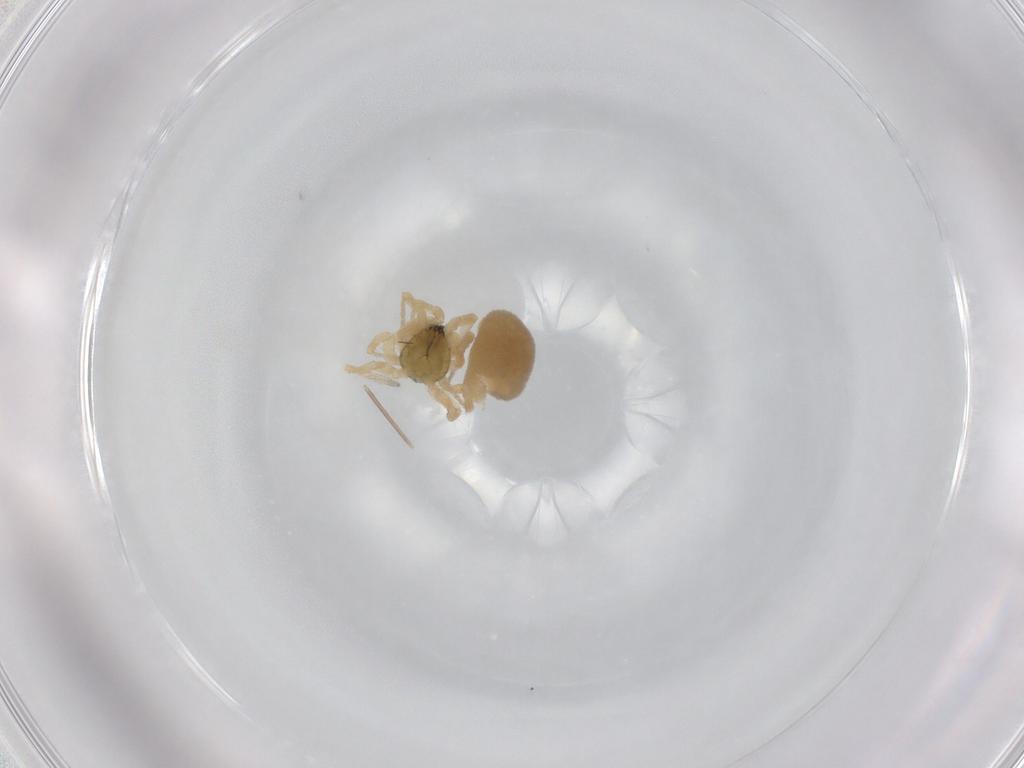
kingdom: Animalia
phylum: Arthropoda
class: Arachnida
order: Araneae
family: Linyphiidae
